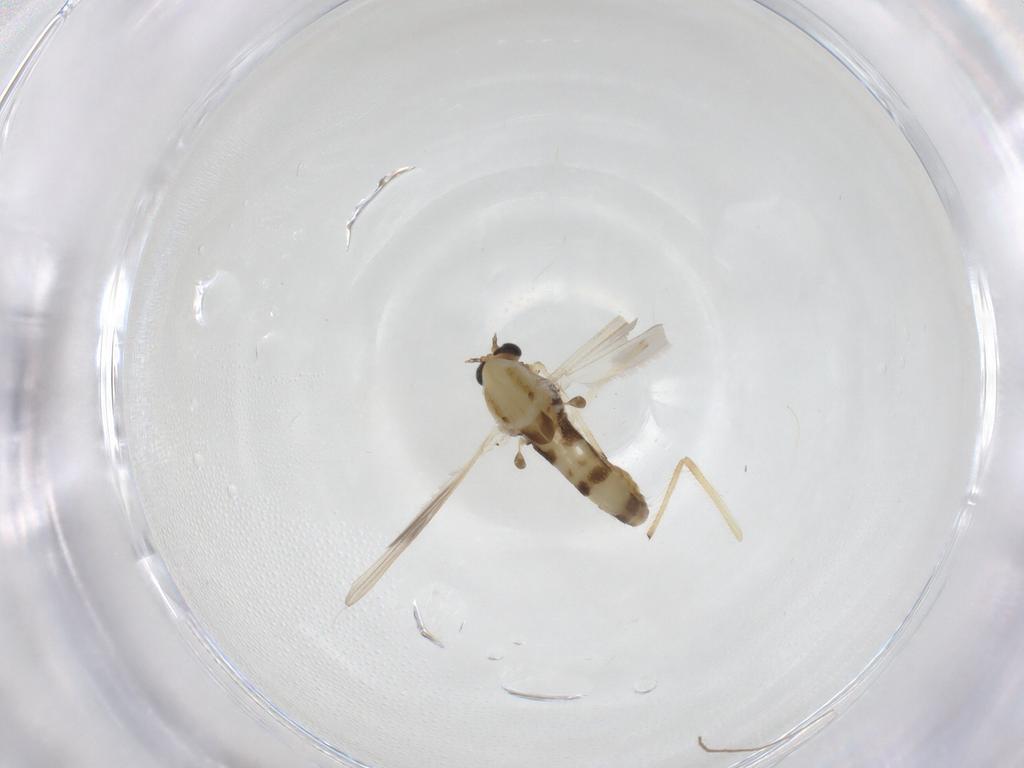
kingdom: Animalia
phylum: Arthropoda
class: Insecta
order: Diptera
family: Chironomidae
